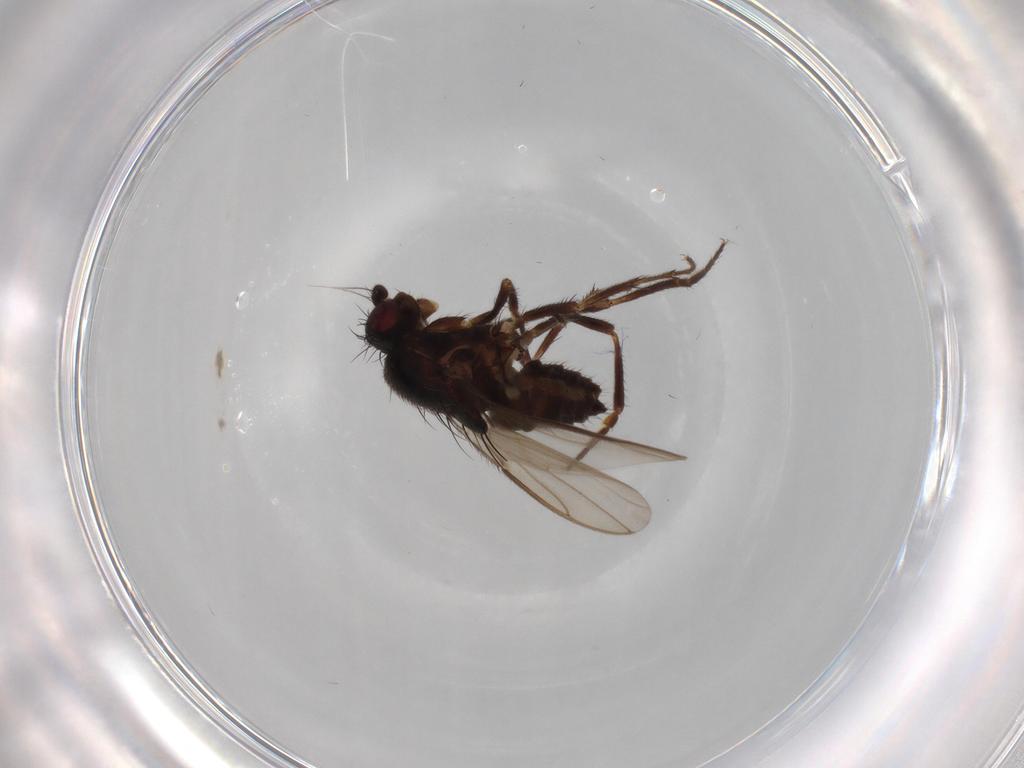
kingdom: Animalia
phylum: Arthropoda
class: Insecta
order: Diptera
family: Sphaeroceridae
